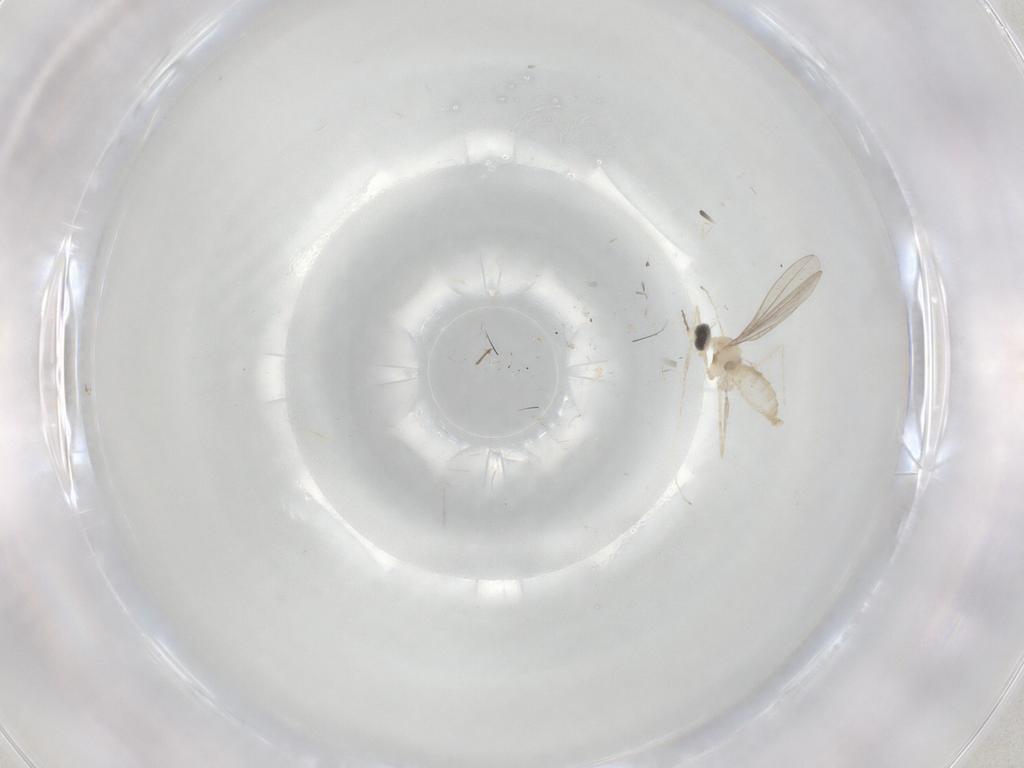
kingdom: Animalia
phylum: Arthropoda
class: Insecta
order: Diptera
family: Cecidomyiidae
